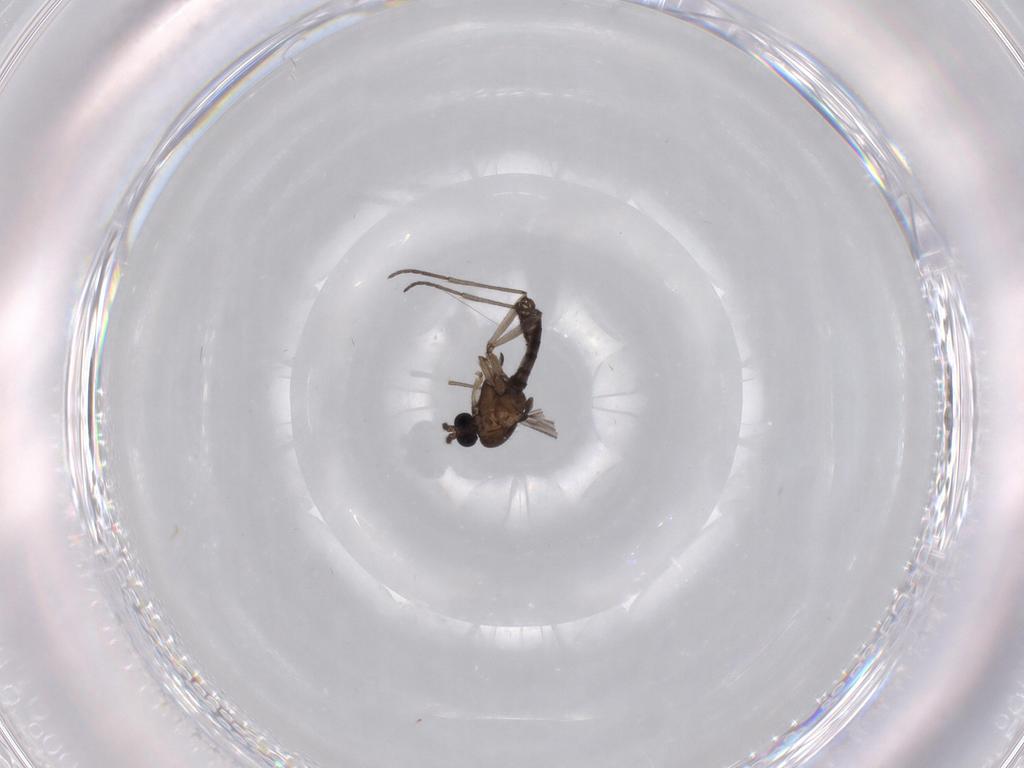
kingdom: Animalia
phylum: Arthropoda
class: Insecta
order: Diptera
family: Sciaridae
